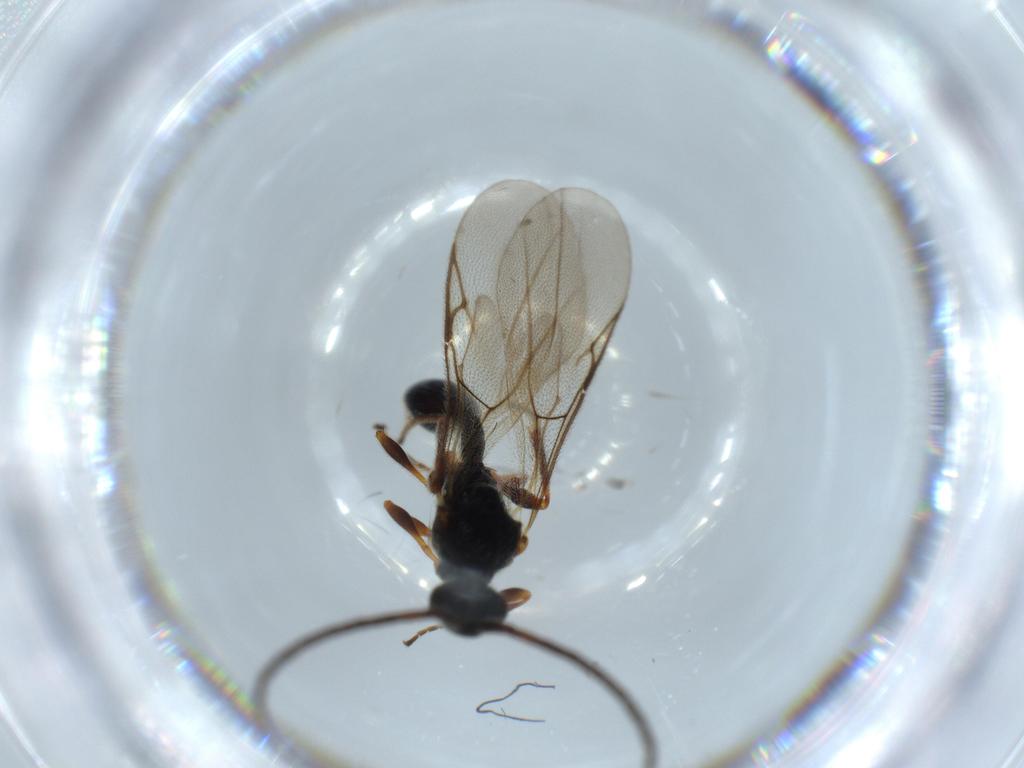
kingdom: Animalia
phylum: Arthropoda
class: Insecta
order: Hymenoptera
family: Diapriidae
